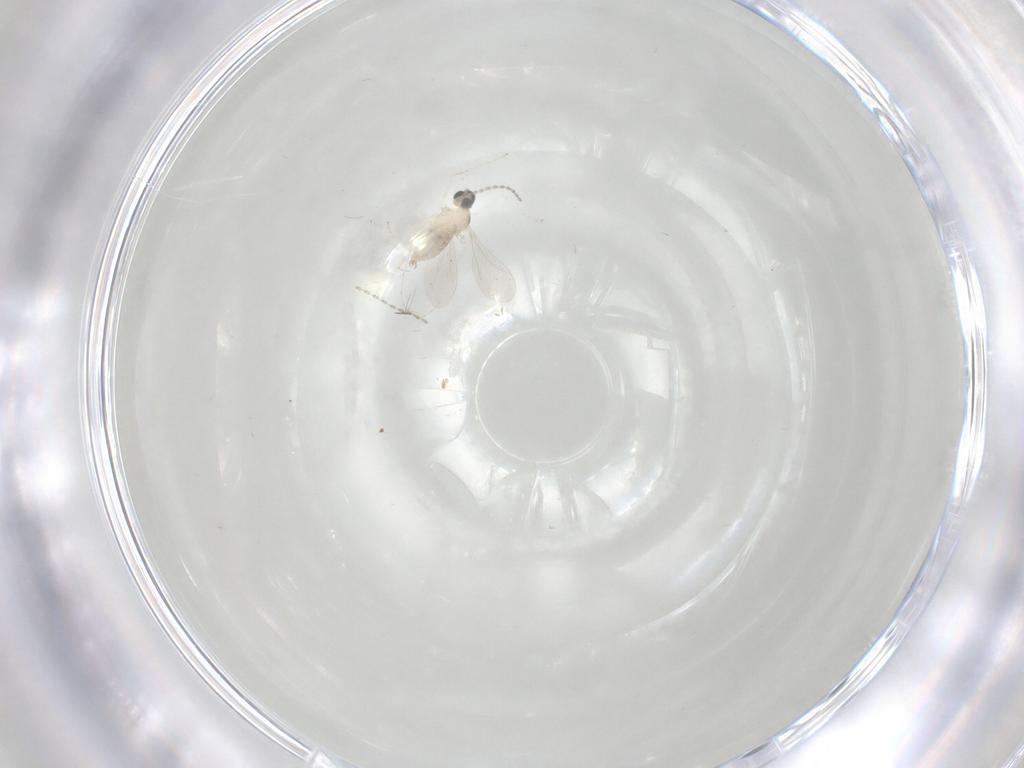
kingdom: Animalia
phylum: Arthropoda
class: Insecta
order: Diptera
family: Cecidomyiidae
